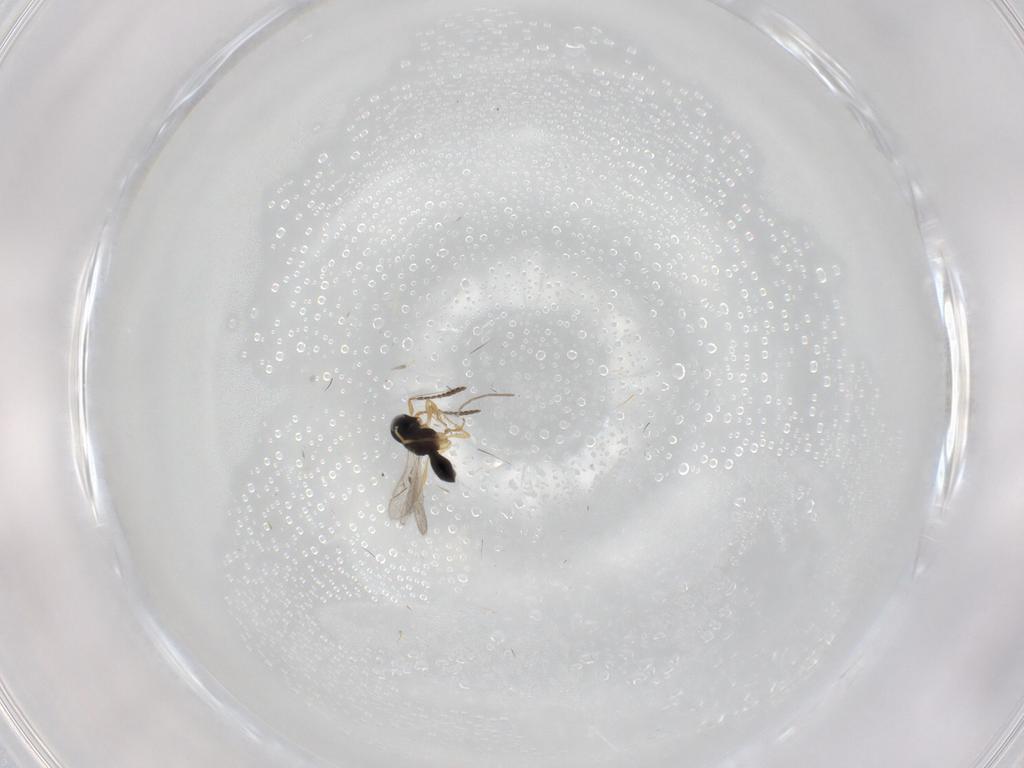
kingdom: Animalia
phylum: Arthropoda
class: Insecta
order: Hymenoptera
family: Scelionidae
